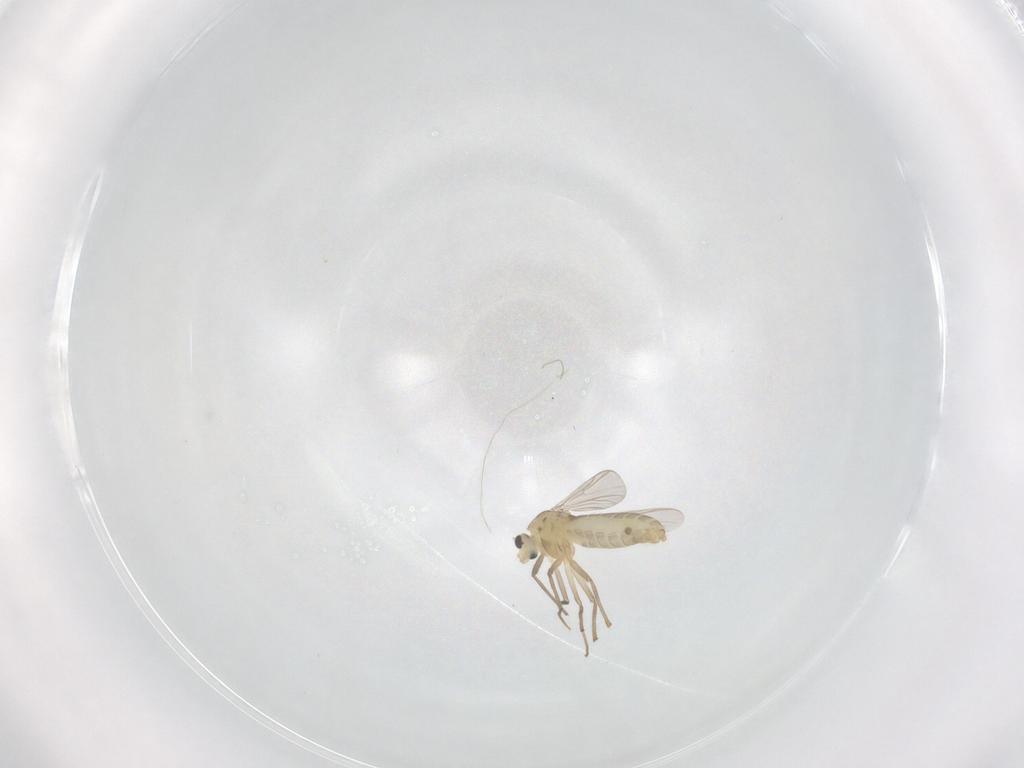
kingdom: Animalia
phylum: Arthropoda
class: Insecta
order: Diptera
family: Chironomidae
